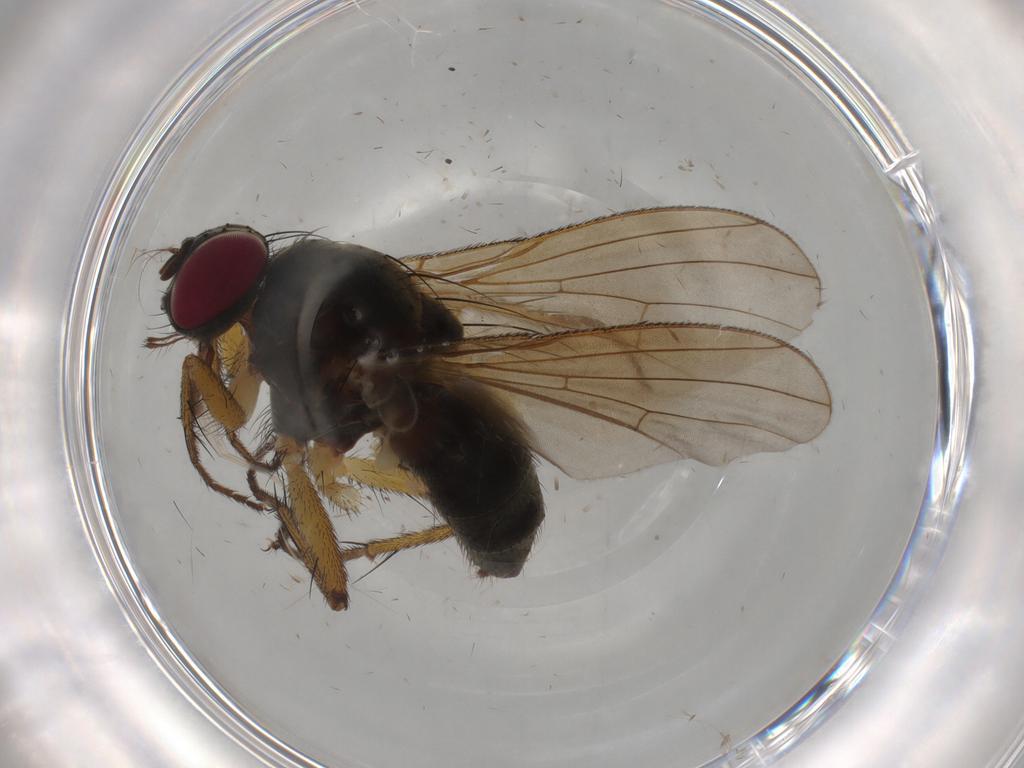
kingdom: Animalia
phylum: Arthropoda
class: Insecta
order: Diptera
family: Muscidae
